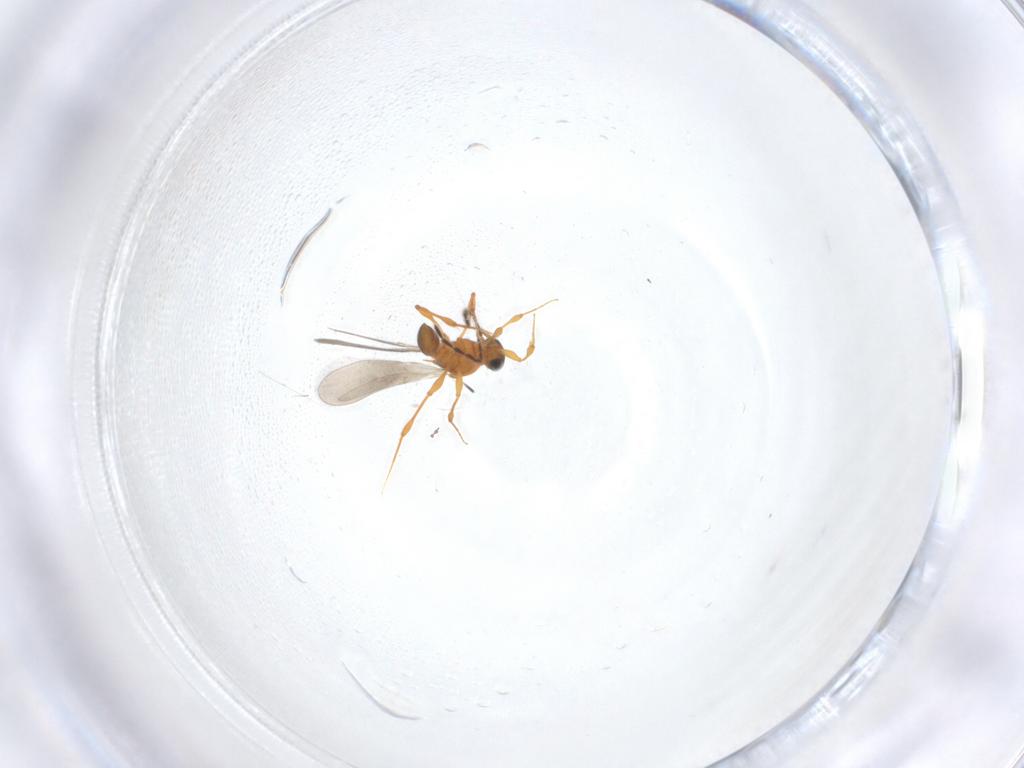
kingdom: Animalia
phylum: Arthropoda
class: Insecta
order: Hymenoptera
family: Platygastridae
